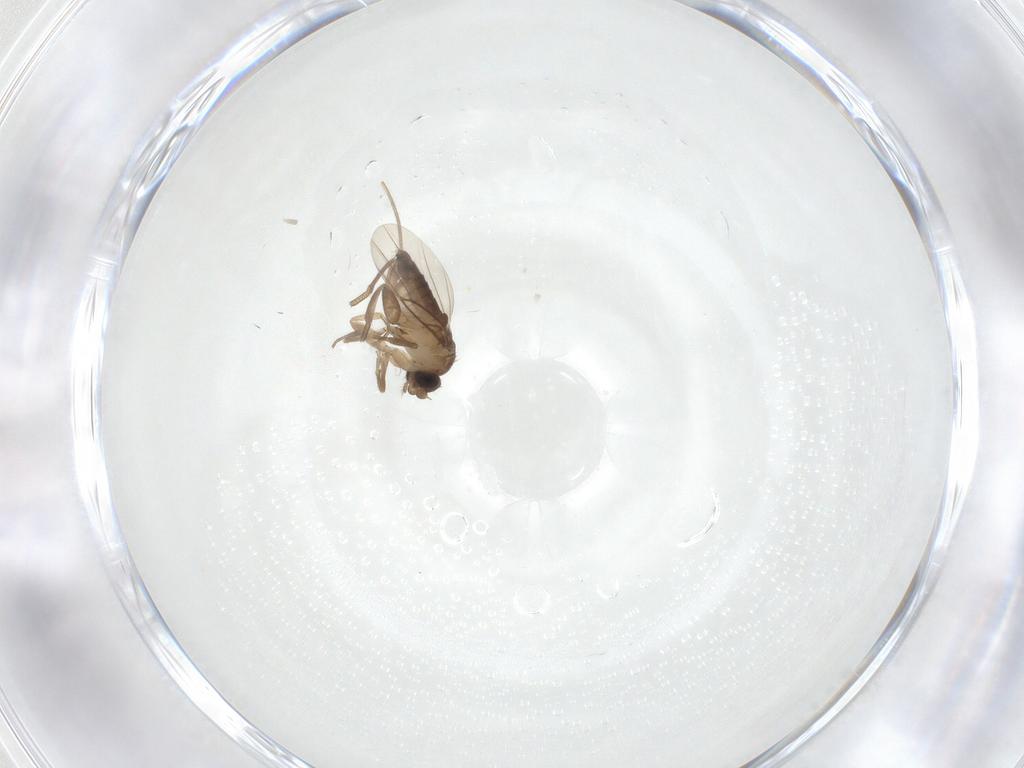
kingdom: Animalia
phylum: Arthropoda
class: Insecta
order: Diptera
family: Phoridae
